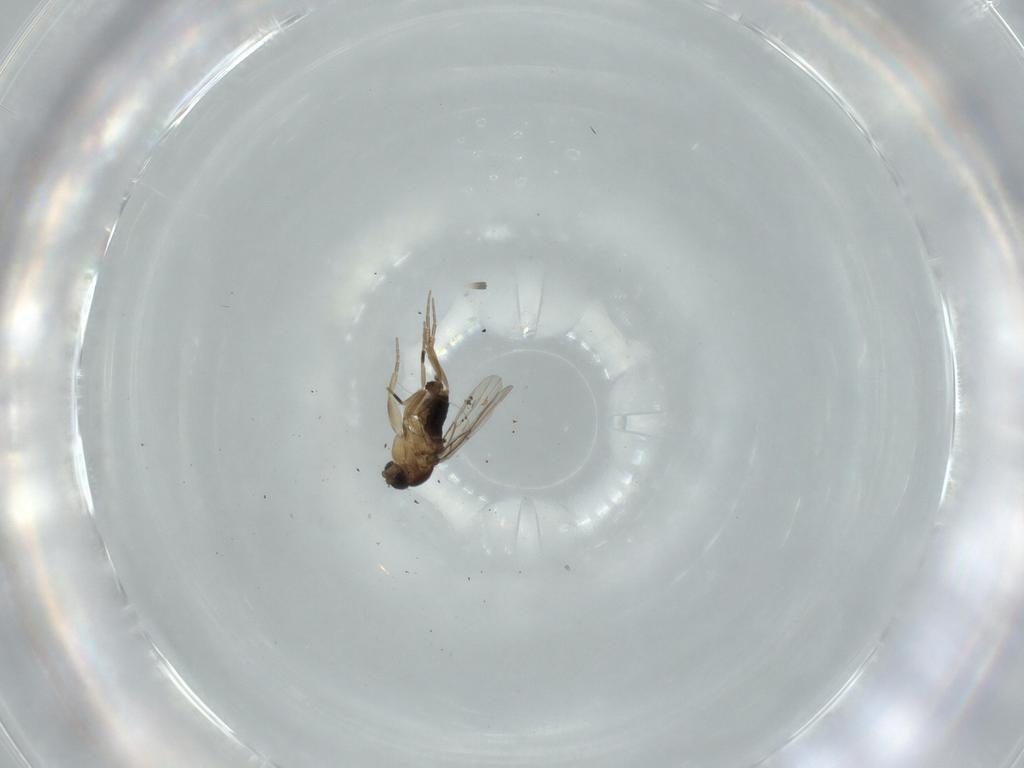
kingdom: Animalia
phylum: Arthropoda
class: Insecta
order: Diptera
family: Phoridae
